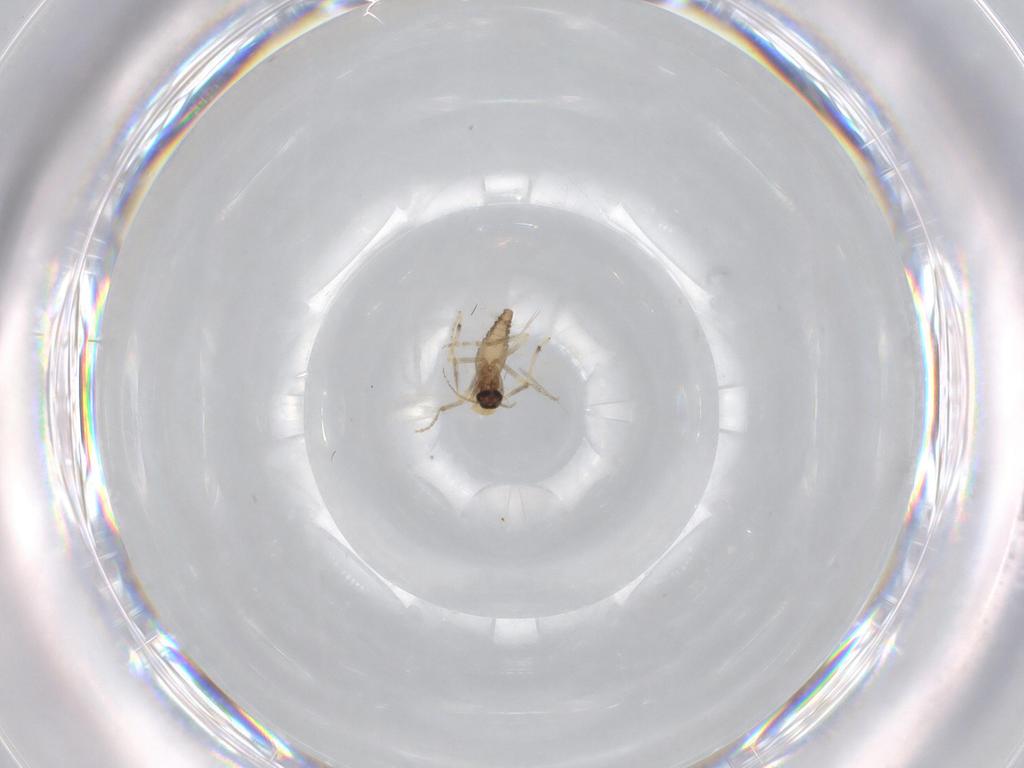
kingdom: Animalia
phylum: Arthropoda
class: Insecta
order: Diptera
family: Ceratopogonidae
